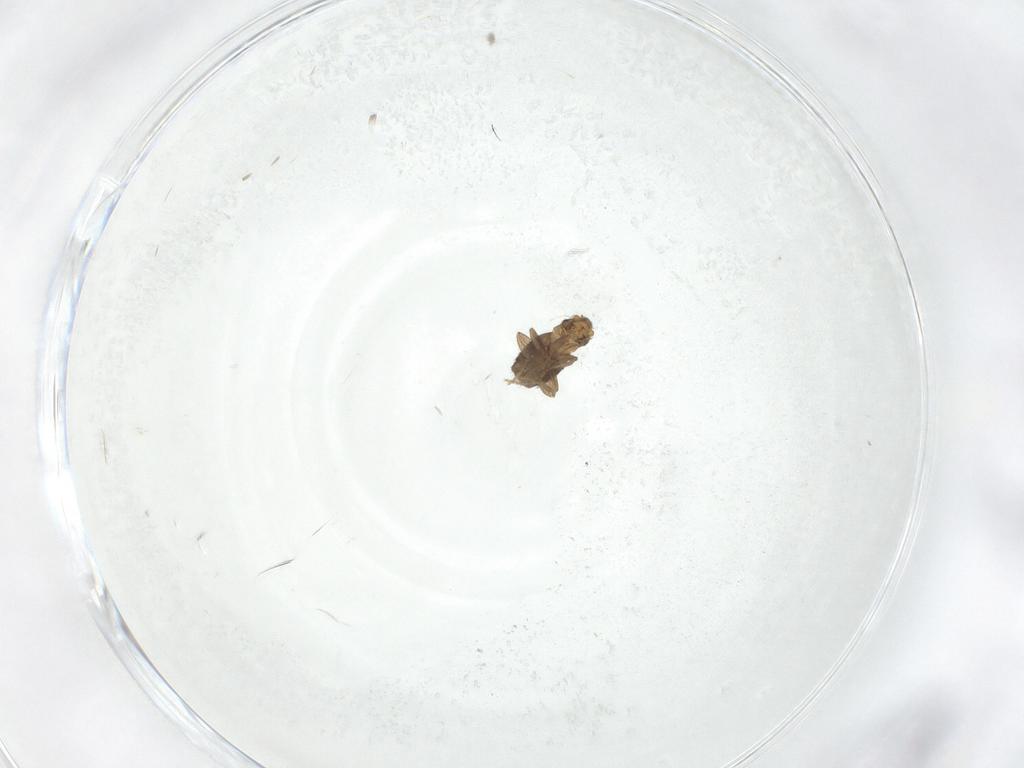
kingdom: Animalia
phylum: Arthropoda
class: Insecta
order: Diptera
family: Phoridae
